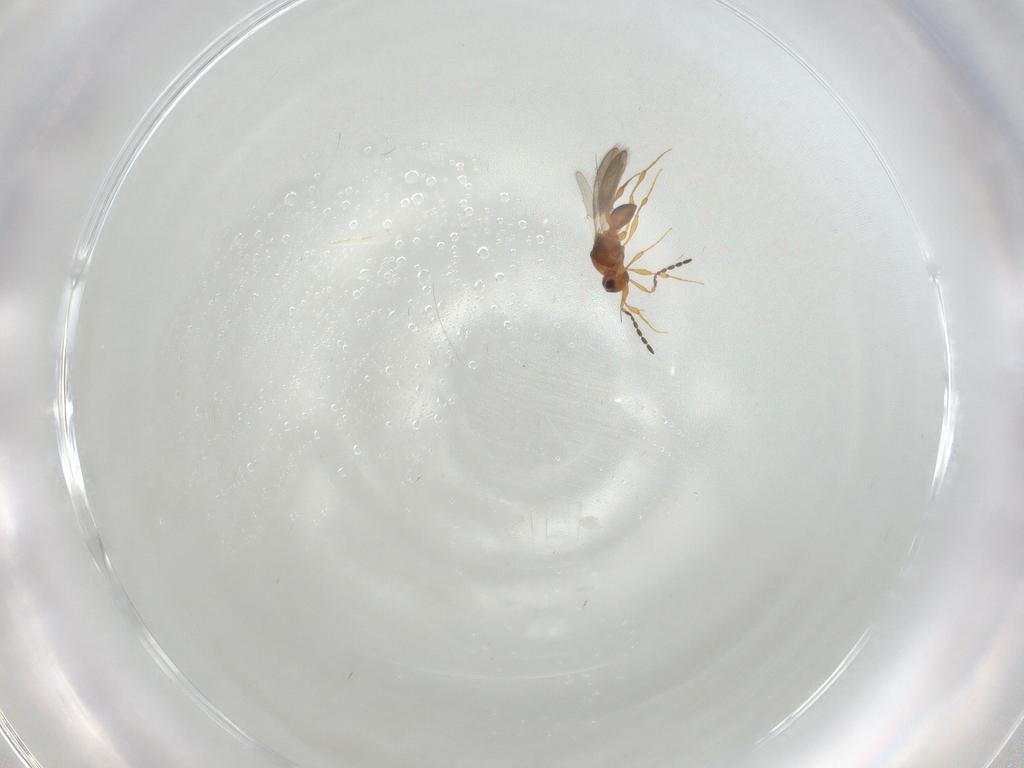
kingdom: Animalia
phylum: Arthropoda
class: Insecta
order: Hymenoptera
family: Platygastridae
